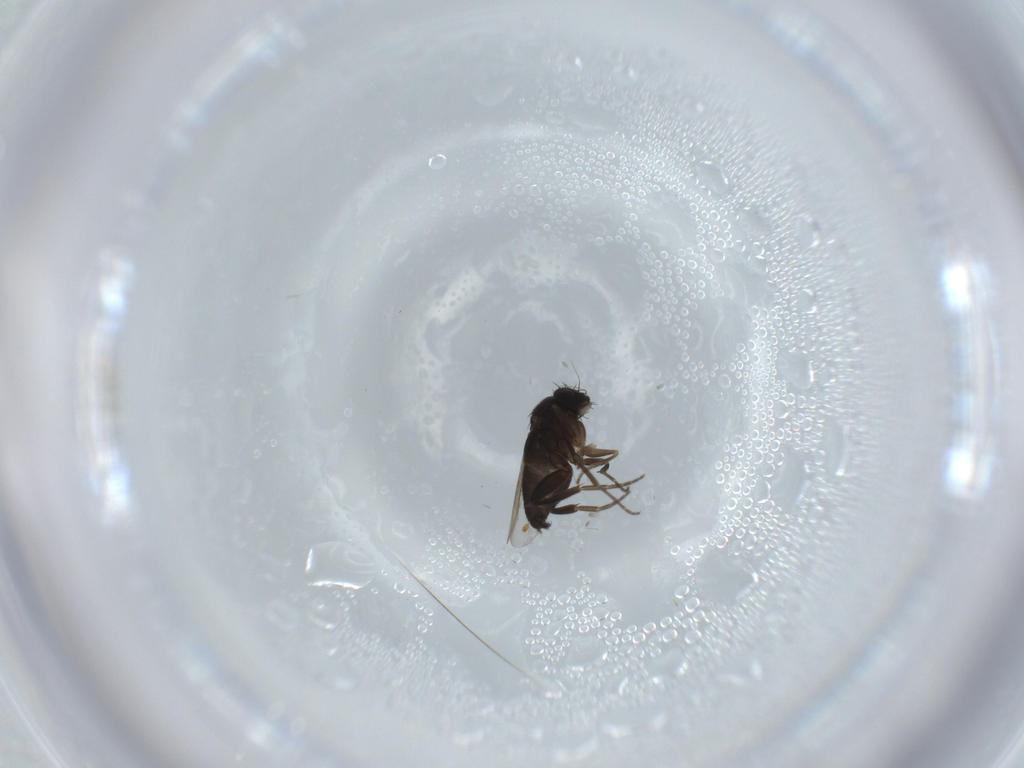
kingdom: Animalia
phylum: Arthropoda
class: Insecta
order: Diptera
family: Phoridae
